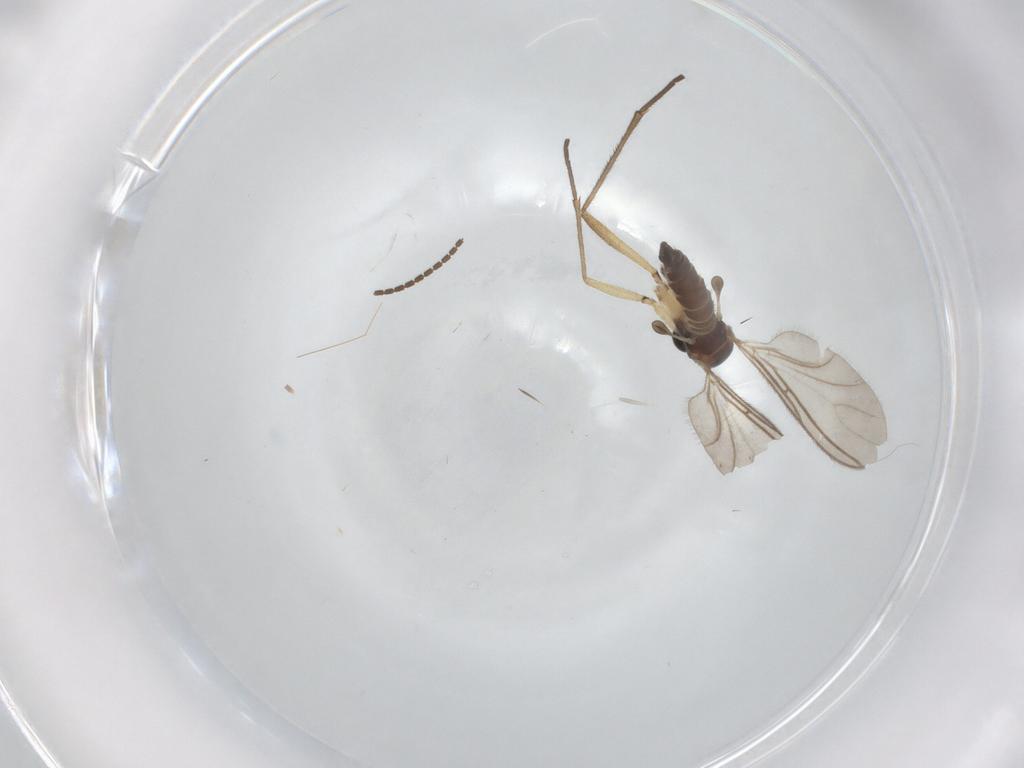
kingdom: Animalia
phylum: Arthropoda
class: Insecta
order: Diptera
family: Sciaridae
